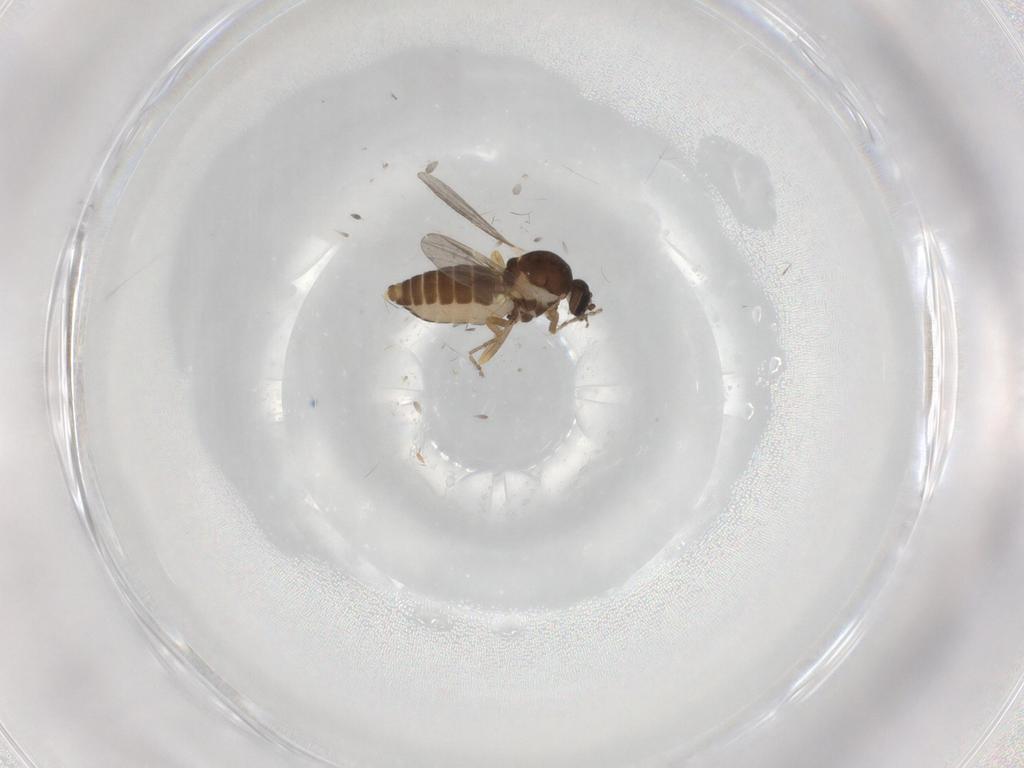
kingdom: Animalia
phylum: Arthropoda
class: Insecta
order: Diptera
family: Ceratopogonidae
